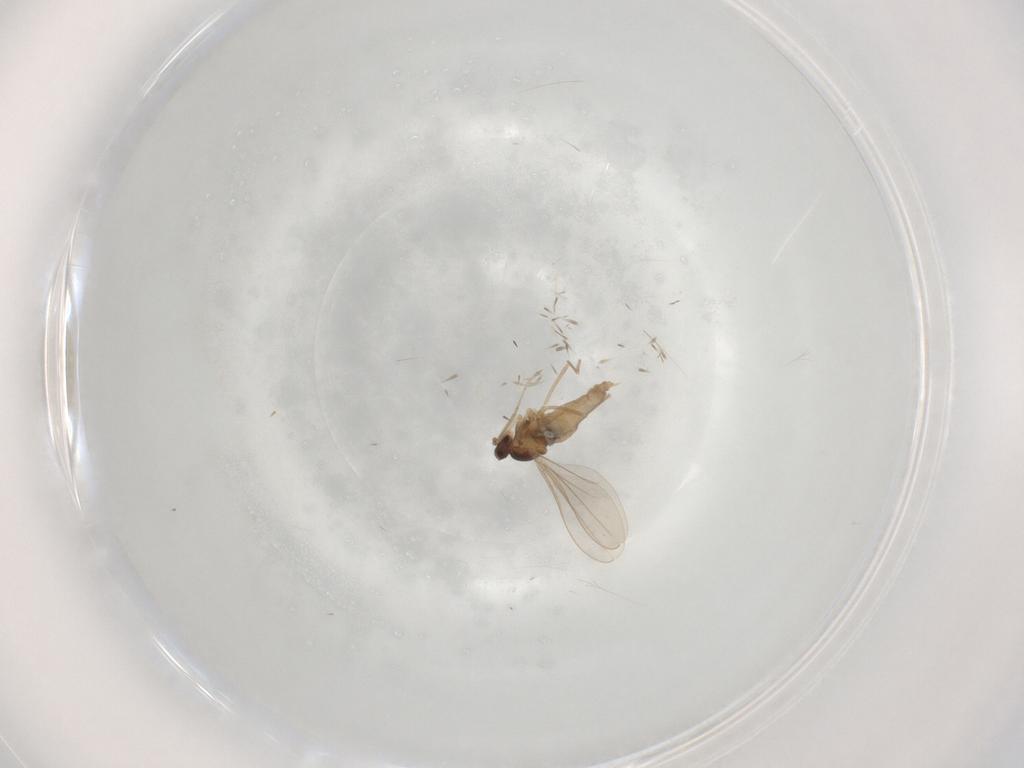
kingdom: Animalia
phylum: Arthropoda
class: Insecta
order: Diptera
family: Cecidomyiidae
